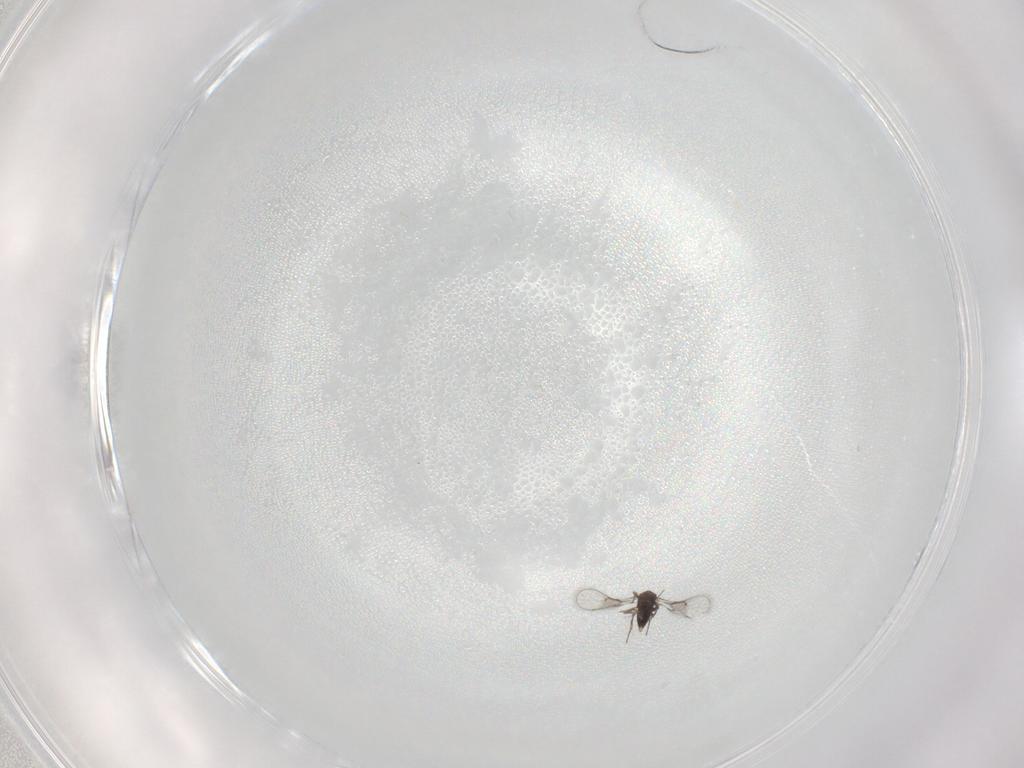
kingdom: Animalia
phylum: Arthropoda
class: Insecta
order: Hymenoptera
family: Trichogrammatidae
